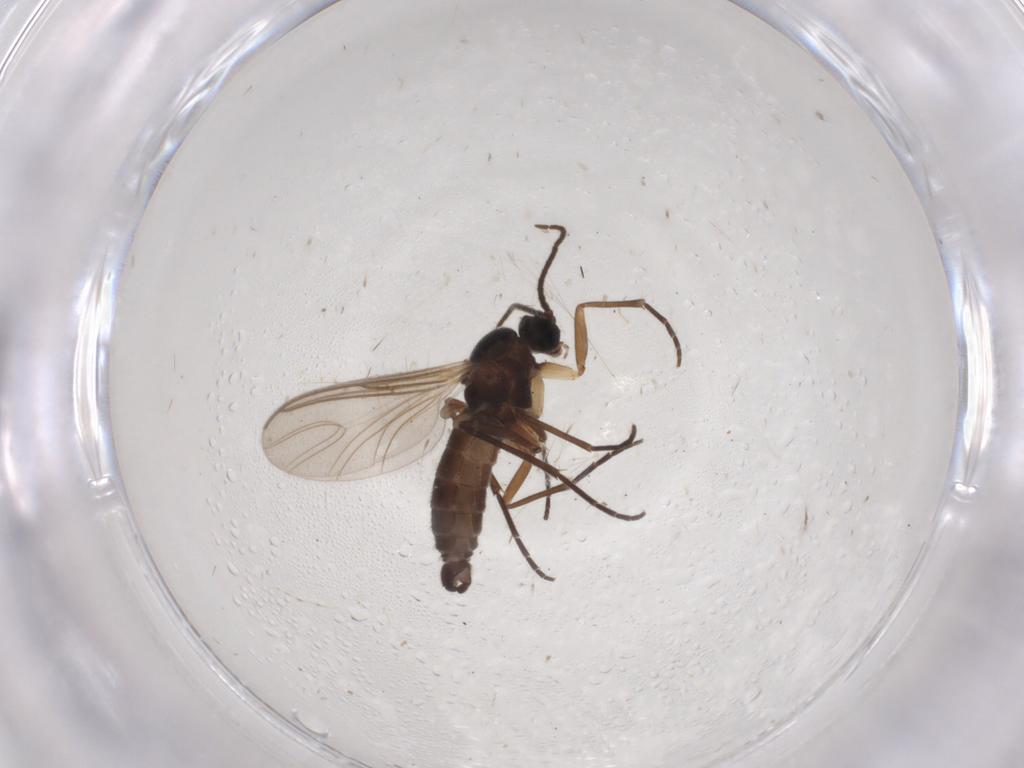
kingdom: Animalia
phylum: Arthropoda
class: Insecta
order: Diptera
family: Sciaridae
